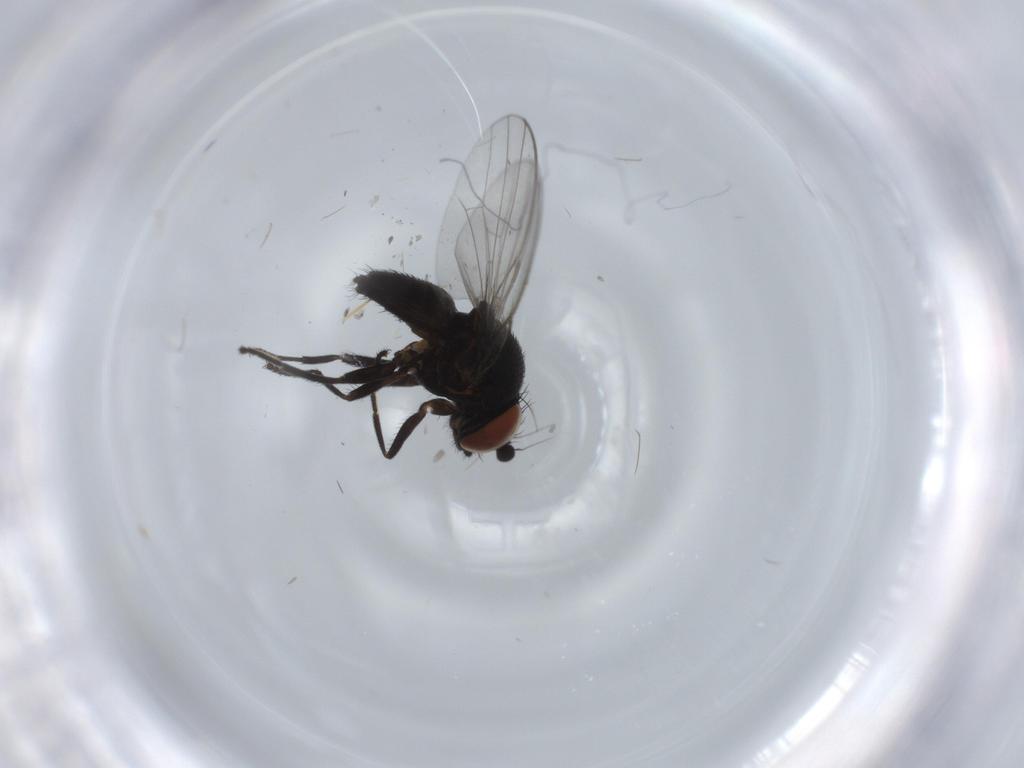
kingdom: Animalia
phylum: Arthropoda
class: Insecta
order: Diptera
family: Milichiidae
